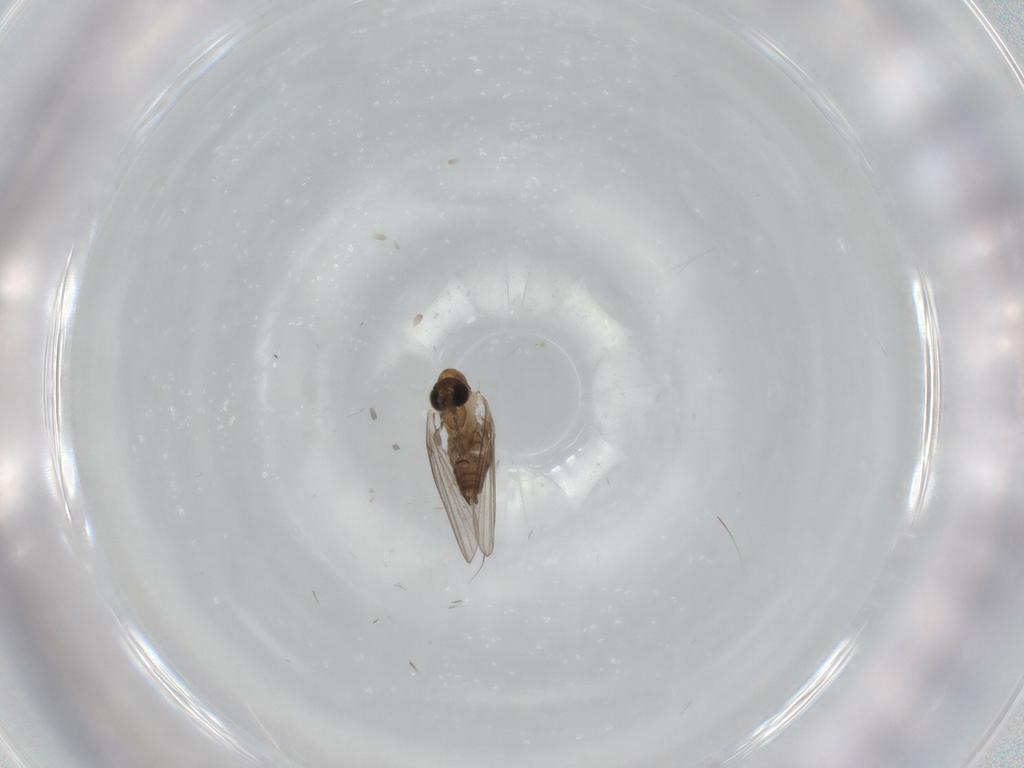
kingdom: Animalia
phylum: Arthropoda
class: Insecta
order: Diptera
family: Psychodidae
